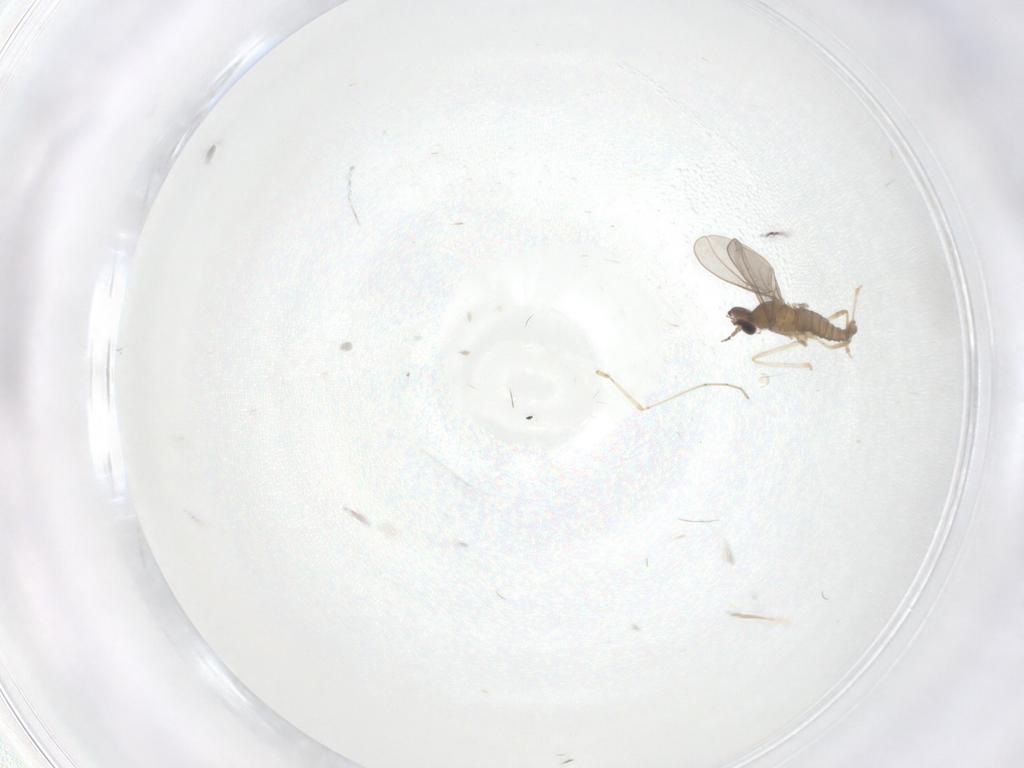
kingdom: Animalia
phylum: Arthropoda
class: Insecta
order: Diptera
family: Cecidomyiidae
